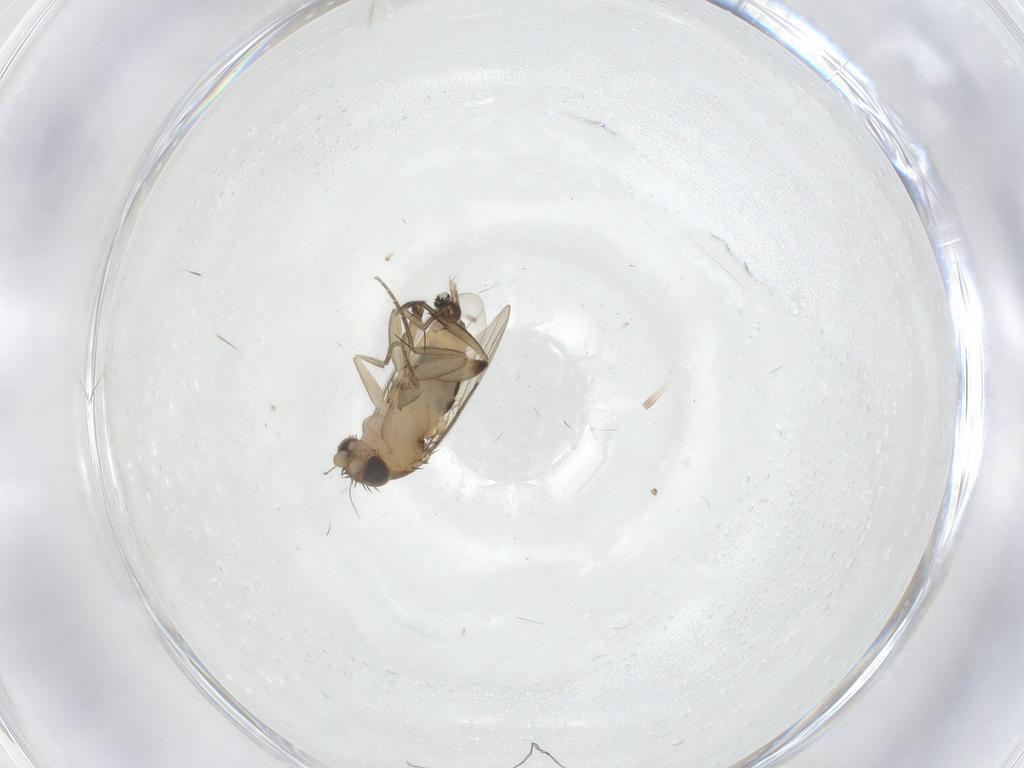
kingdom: Animalia
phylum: Arthropoda
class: Insecta
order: Diptera
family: Phoridae
